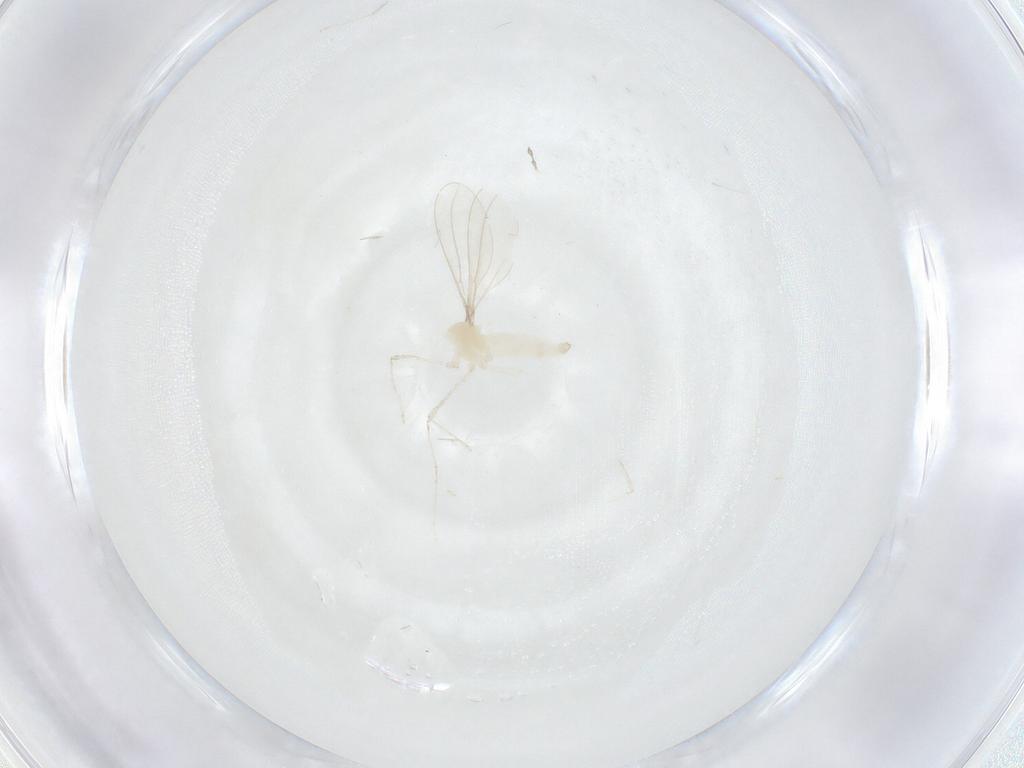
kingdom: Animalia
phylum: Arthropoda
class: Insecta
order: Diptera
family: Cecidomyiidae
